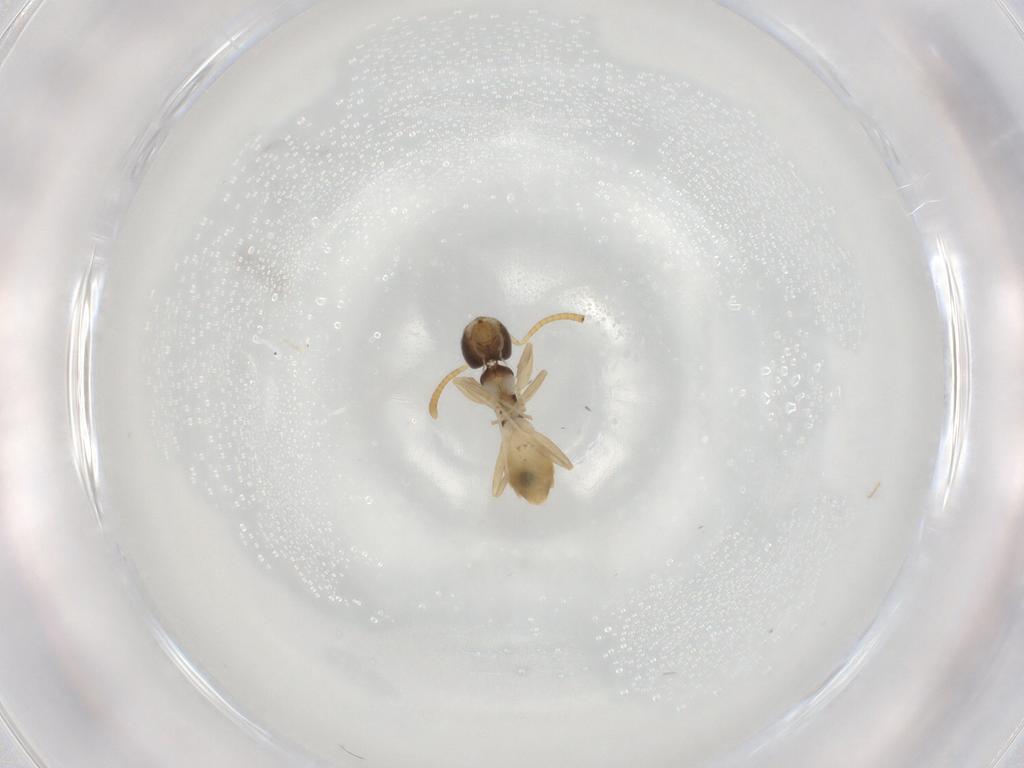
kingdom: Animalia
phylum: Arthropoda
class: Insecta
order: Hymenoptera
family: Formicidae
